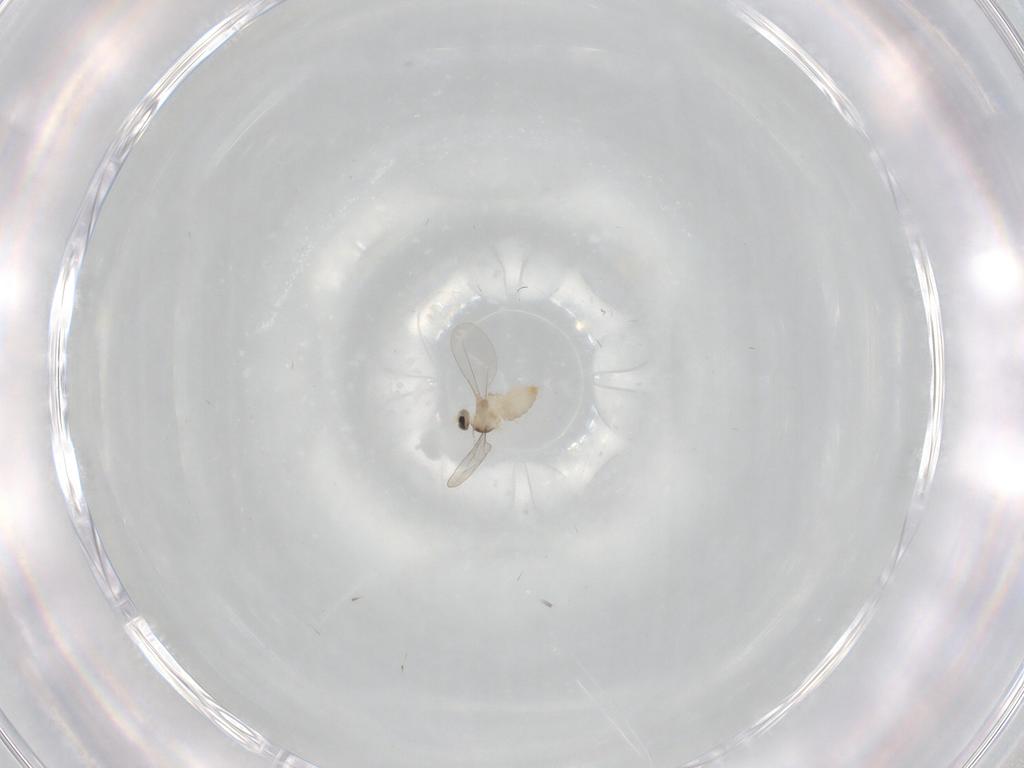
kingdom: Animalia
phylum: Arthropoda
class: Insecta
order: Diptera
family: Cecidomyiidae
